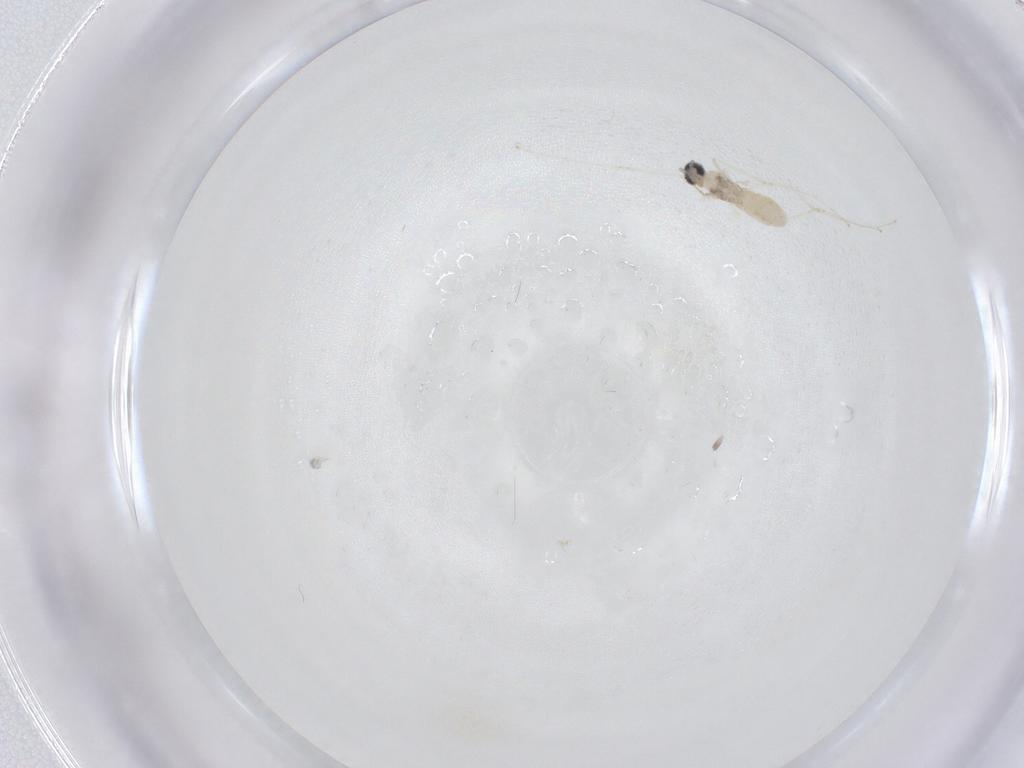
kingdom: Animalia
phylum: Arthropoda
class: Insecta
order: Diptera
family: Cecidomyiidae
